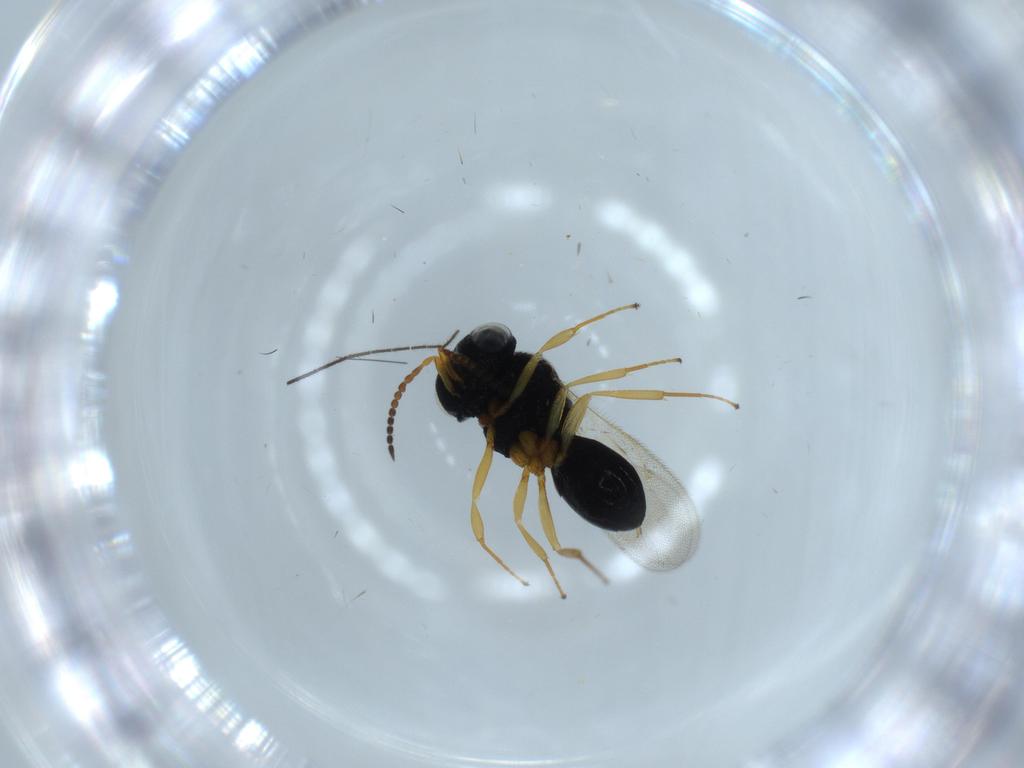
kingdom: Animalia
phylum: Arthropoda
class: Insecta
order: Hymenoptera
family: Scelionidae
